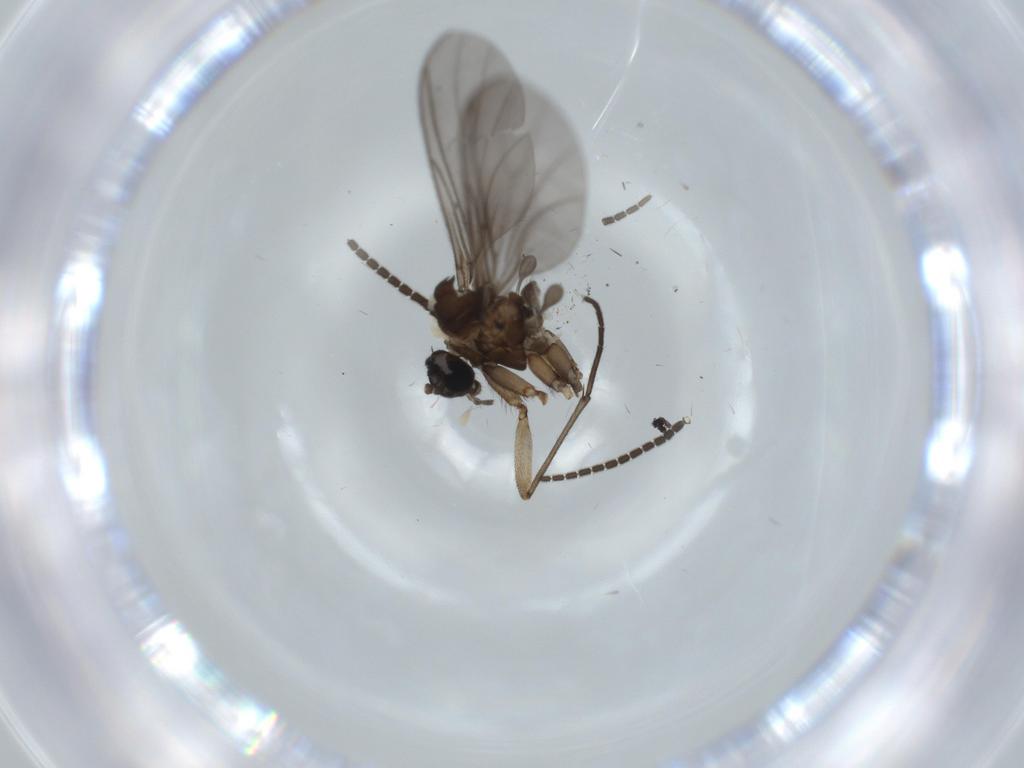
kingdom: Animalia
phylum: Arthropoda
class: Insecta
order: Diptera
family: Sciaridae
